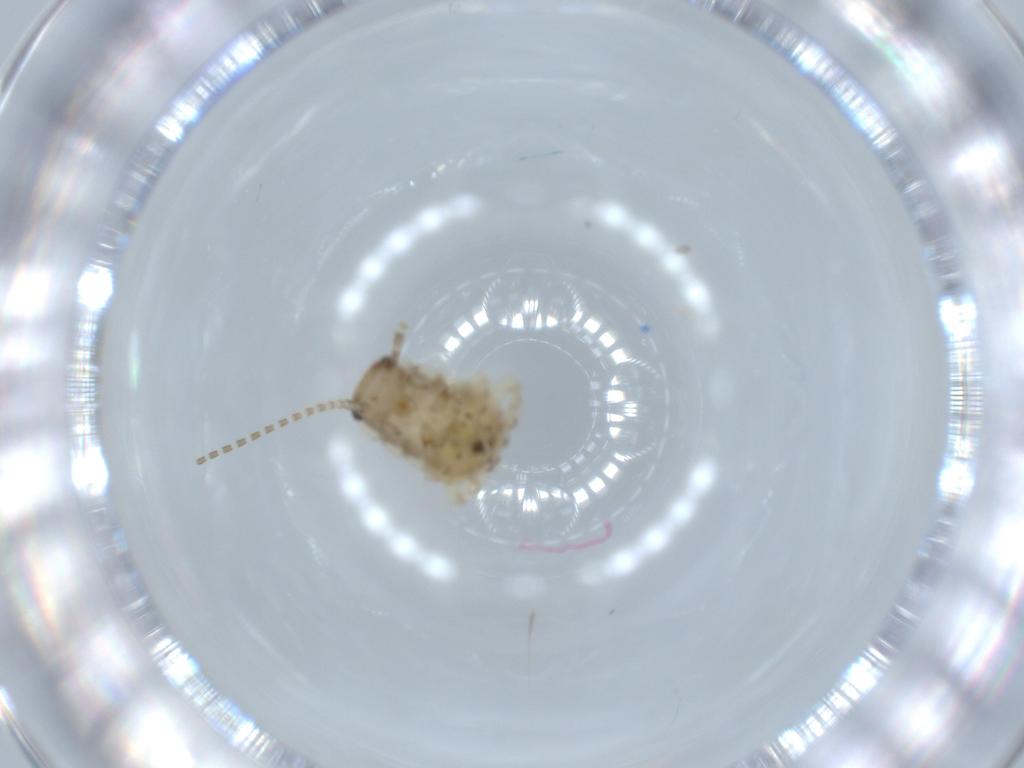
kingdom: Animalia
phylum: Arthropoda
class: Insecta
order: Blattodea
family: Ectobiidae
